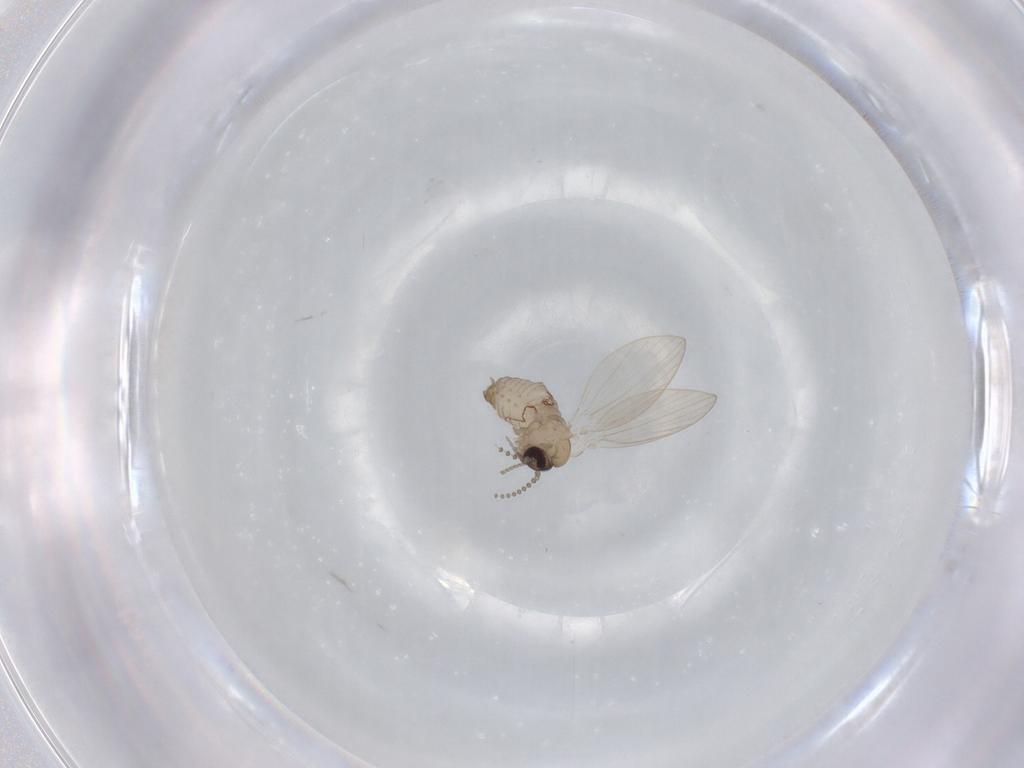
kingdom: Animalia
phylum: Arthropoda
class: Insecta
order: Diptera
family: Psychodidae
